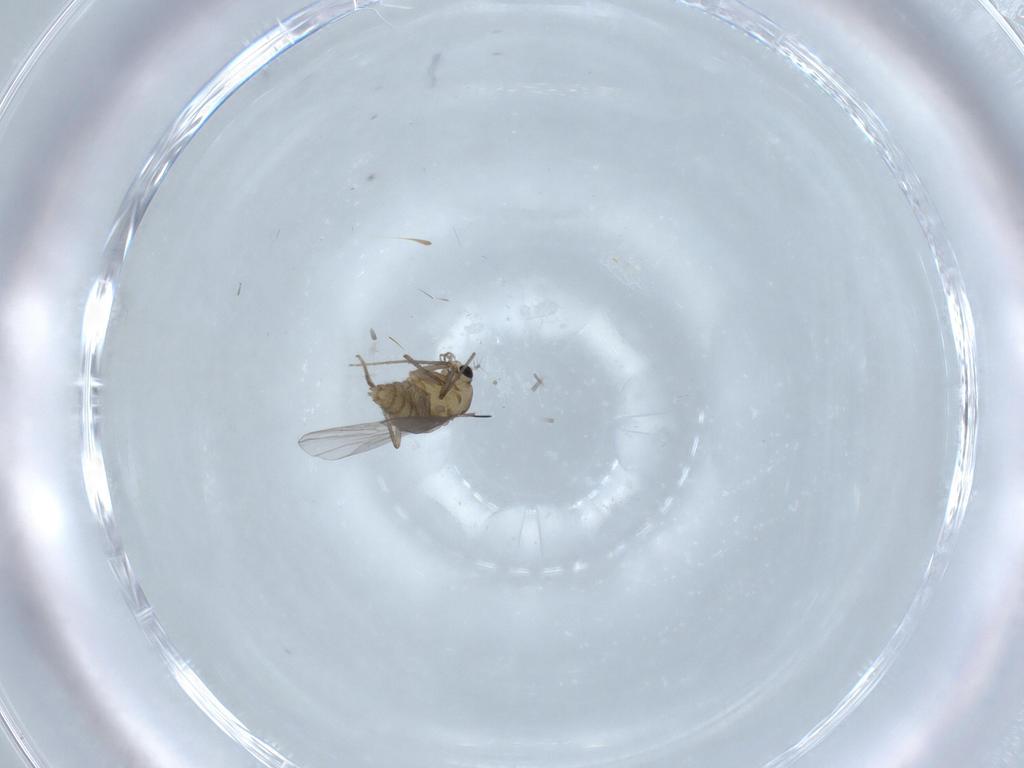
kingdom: Animalia
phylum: Arthropoda
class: Insecta
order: Diptera
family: Chironomidae
